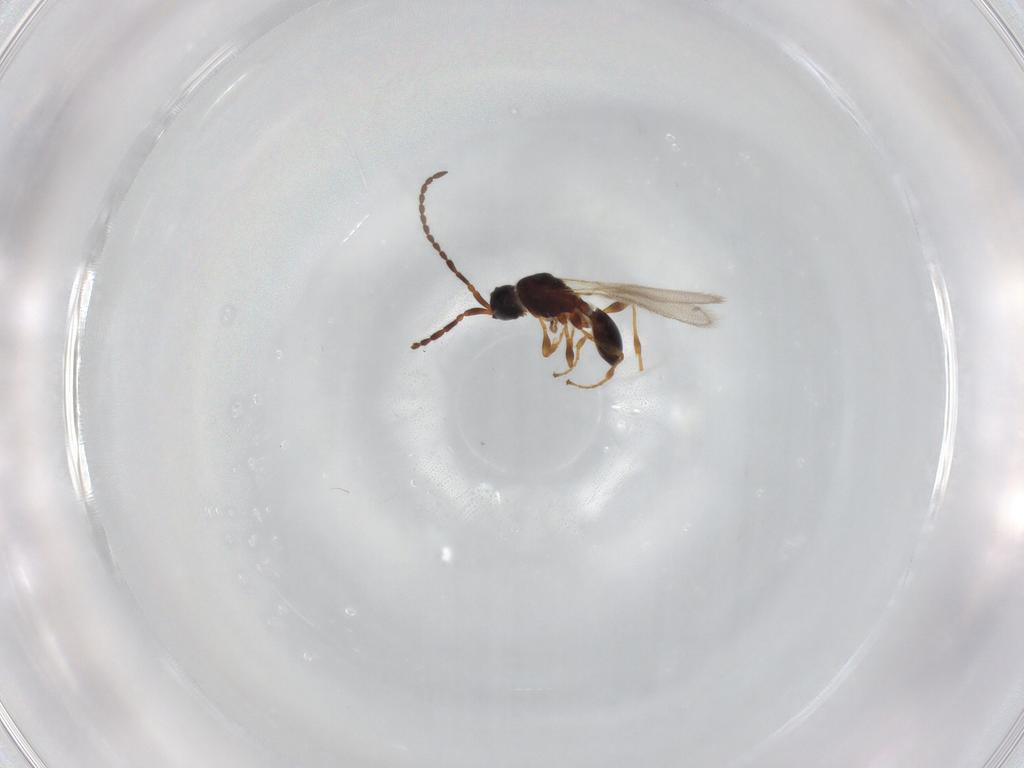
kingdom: Animalia
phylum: Arthropoda
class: Insecta
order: Hymenoptera
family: Diapriidae
